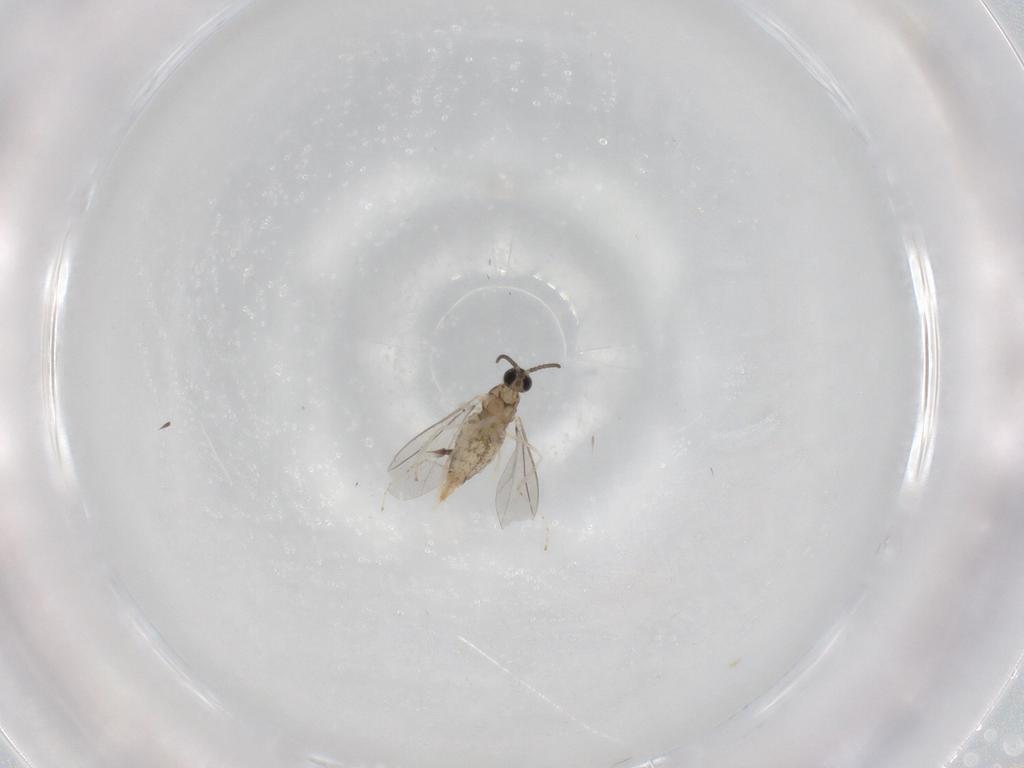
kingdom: Animalia
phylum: Arthropoda
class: Insecta
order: Diptera
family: Cecidomyiidae
